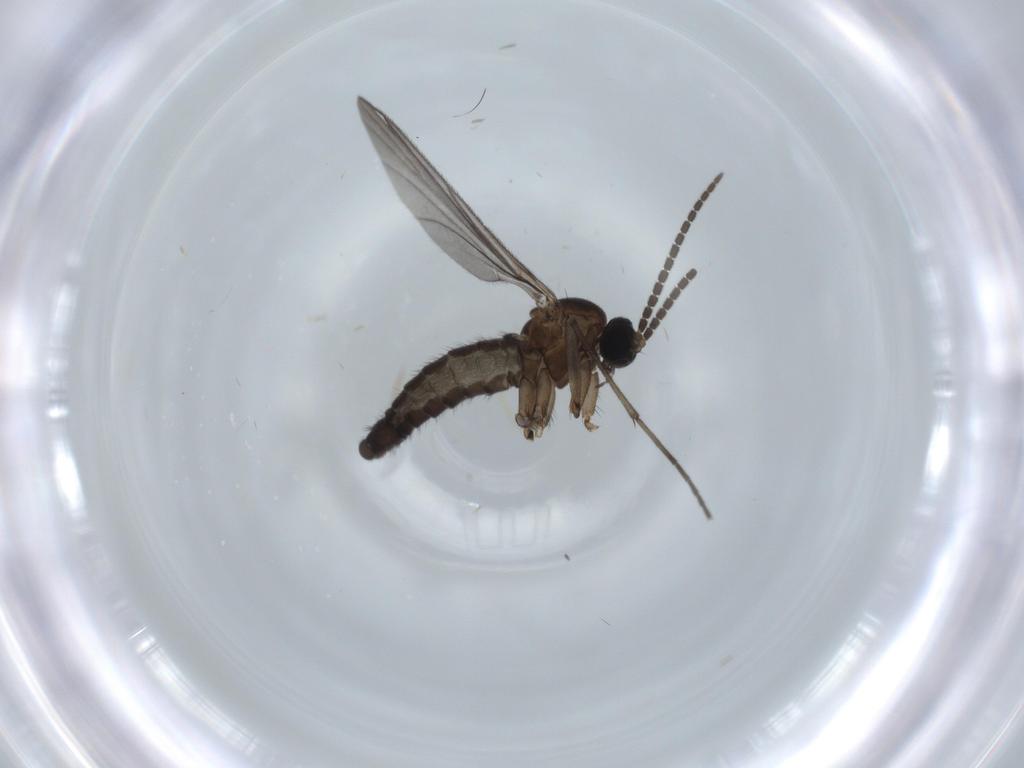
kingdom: Animalia
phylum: Arthropoda
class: Insecta
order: Diptera
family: Sciaridae
